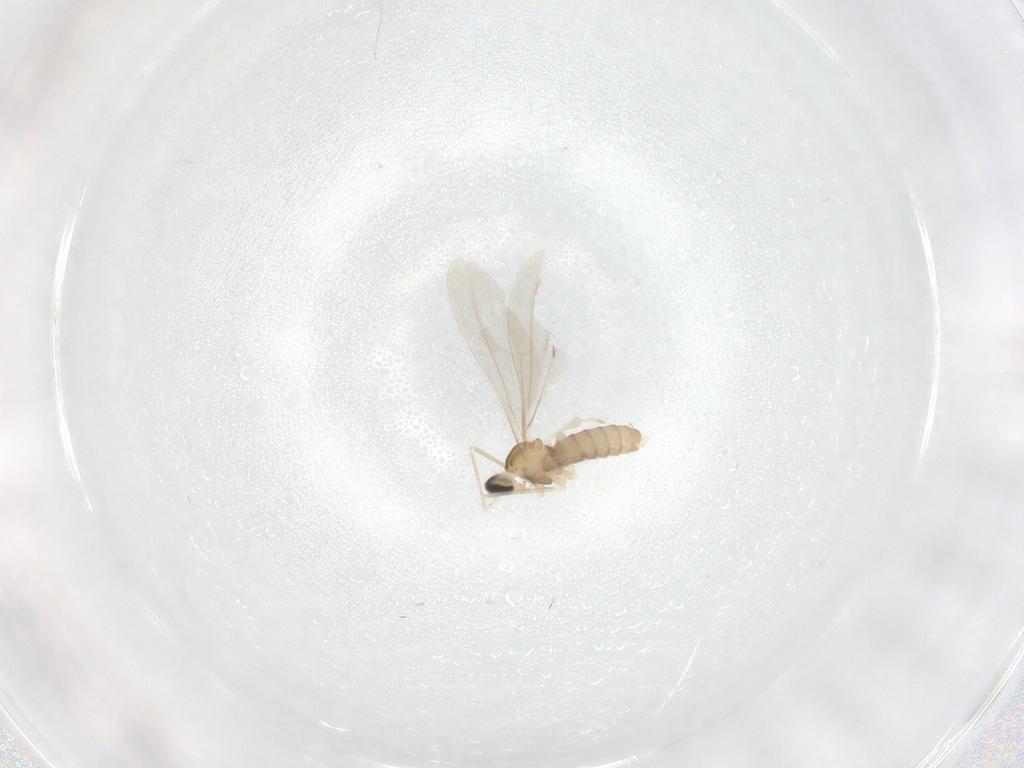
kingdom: Animalia
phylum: Arthropoda
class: Insecta
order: Diptera
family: Cecidomyiidae
